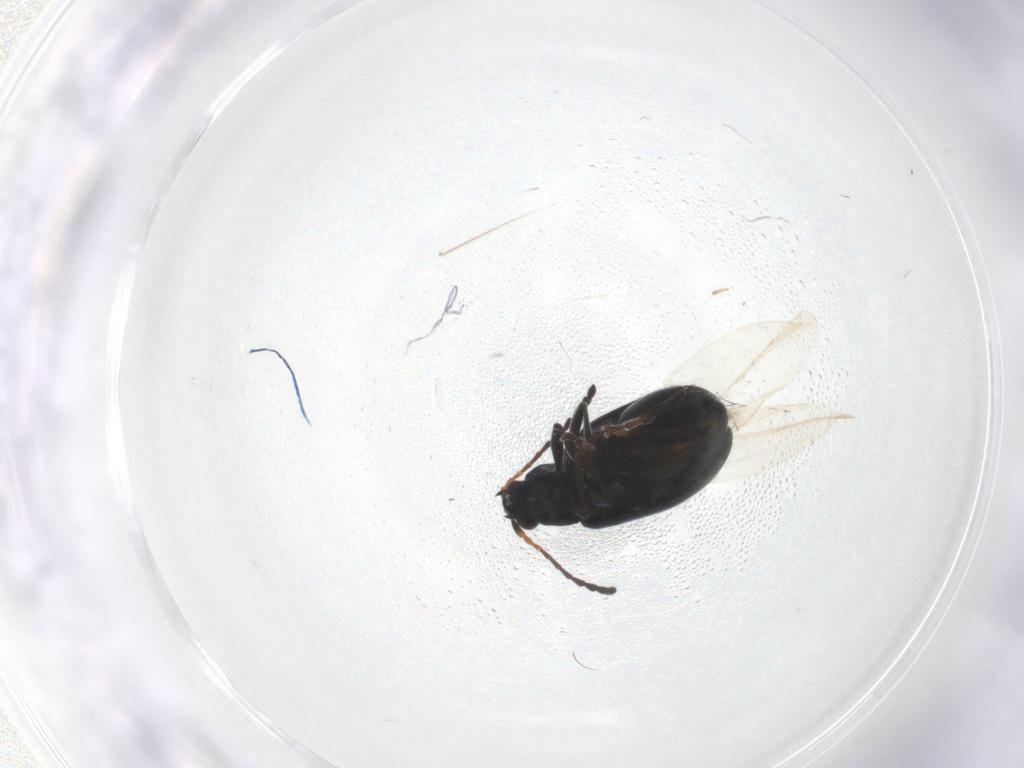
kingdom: Animalia
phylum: Arthropoda
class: Insecta
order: Coleoptera
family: Chrysomelidae
